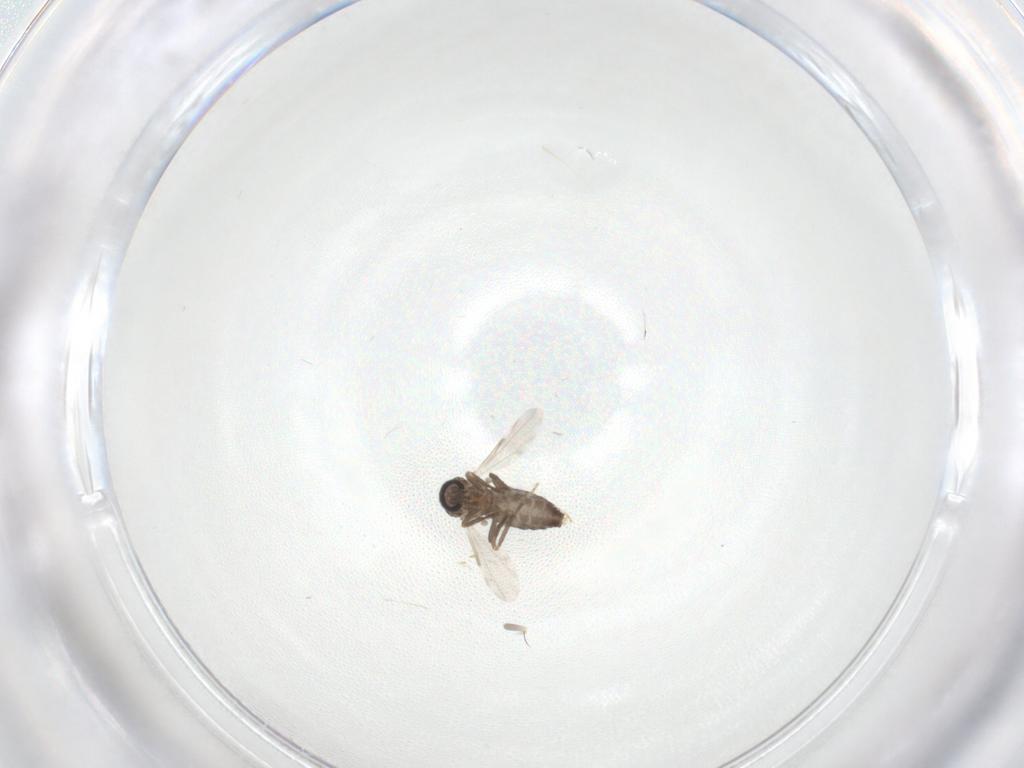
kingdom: Animalia
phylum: Arthropoda
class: Insecta
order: Diptera
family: Ceratopogonidae
